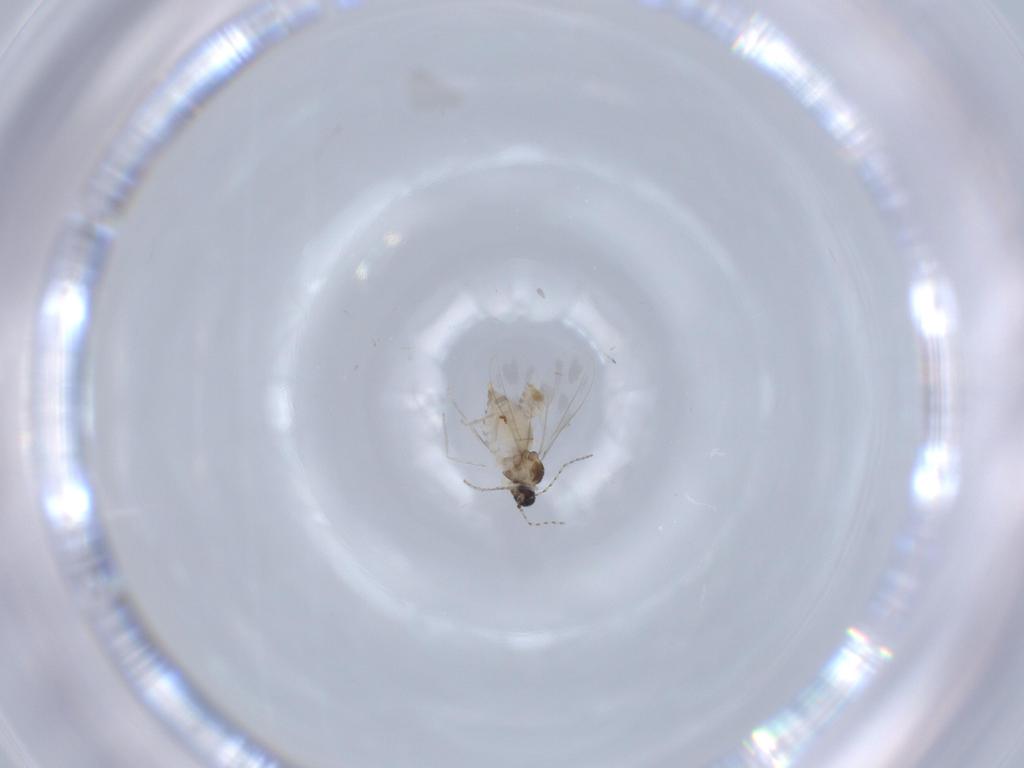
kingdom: Animalia
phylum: Arthropoda
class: Insecta
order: Diptera
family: Cecidomyiidae
